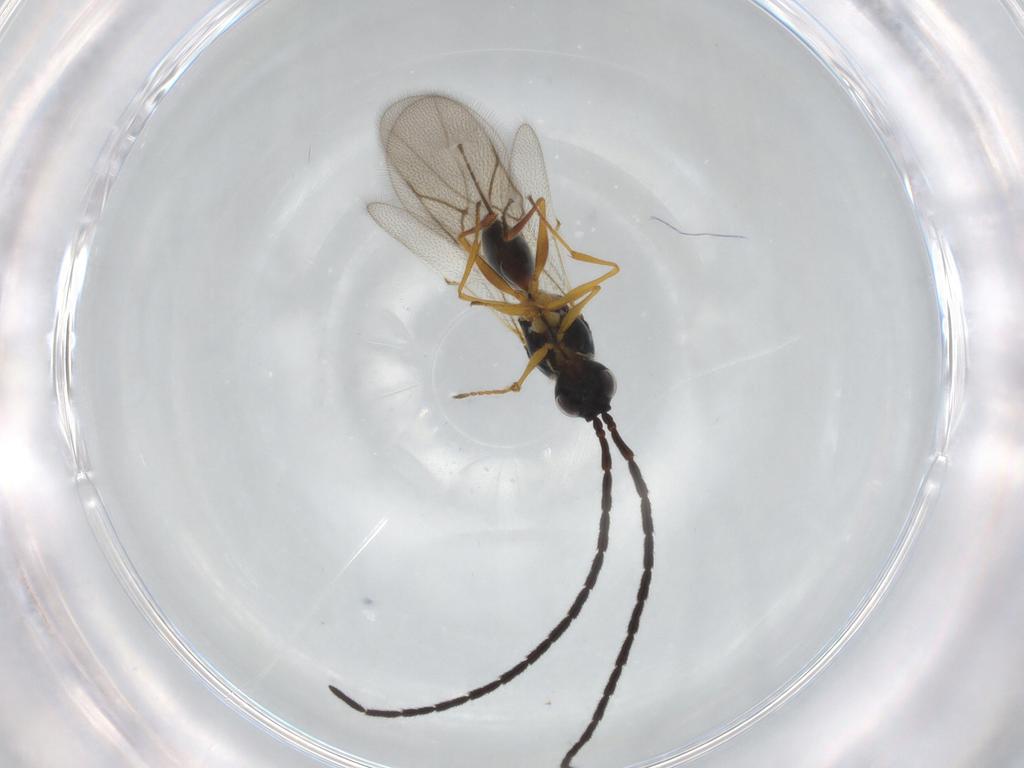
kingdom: Animalia
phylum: Arthropoda
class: Insecta
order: Hymenoptera
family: Figitidae
